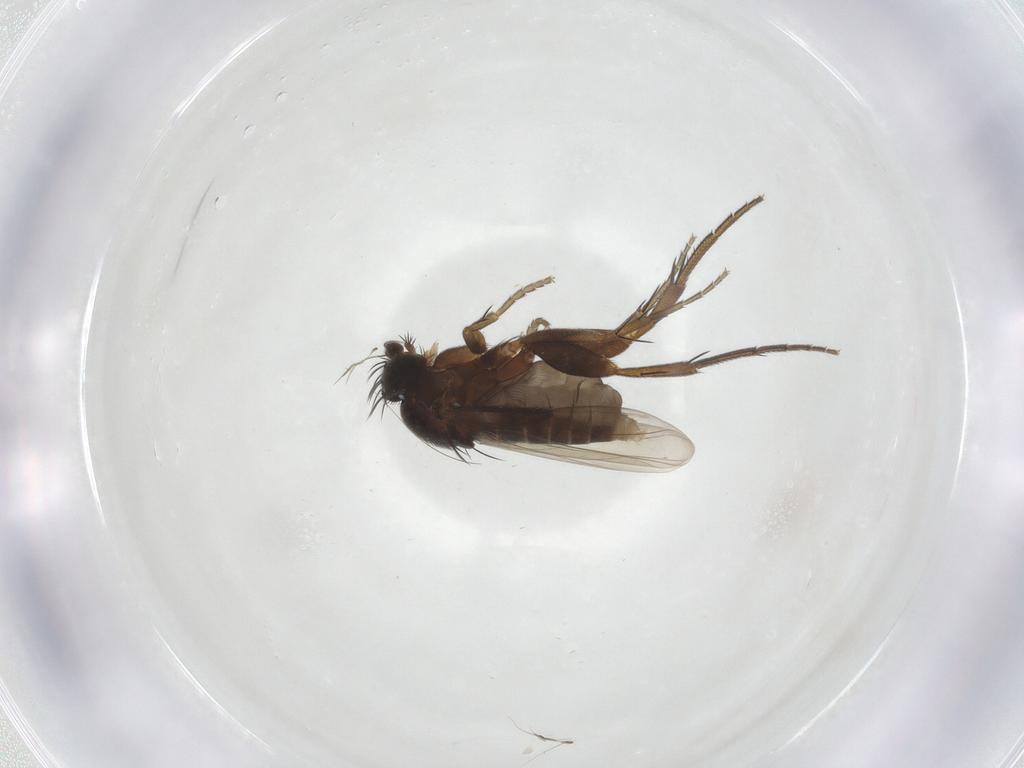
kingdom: Animalia
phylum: Arthropoda
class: Insecta
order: Diptera
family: Phoridae
